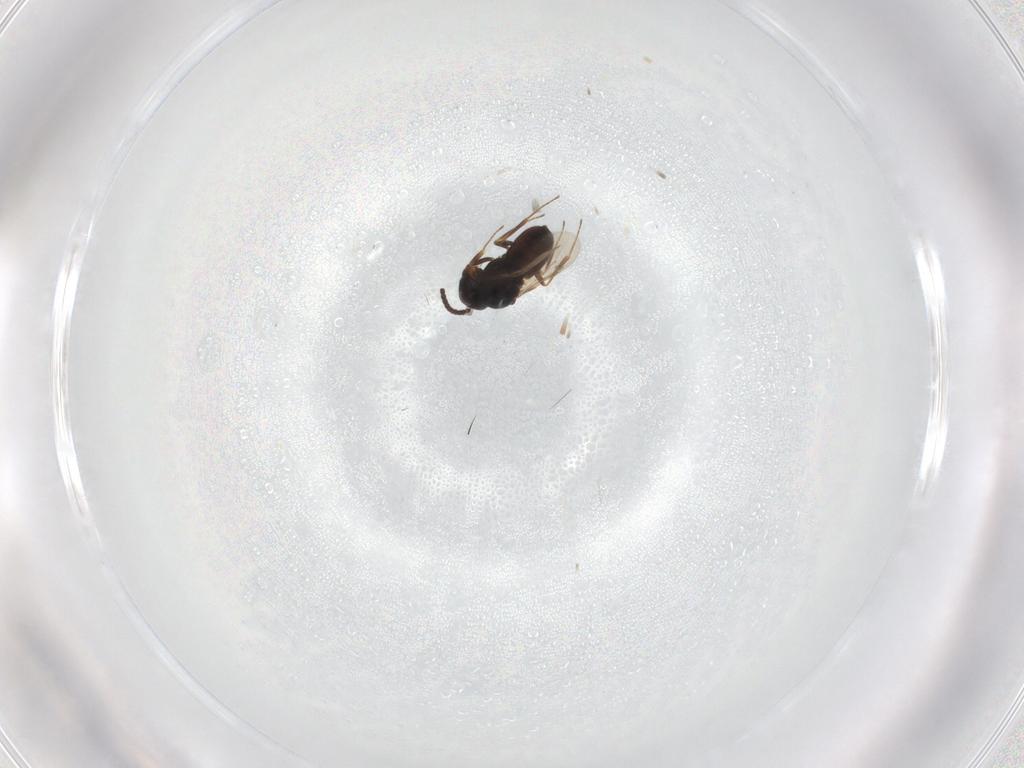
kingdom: Animalia
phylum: Arthropoda
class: Insecta
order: Hymenoptera
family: Scelionidae
